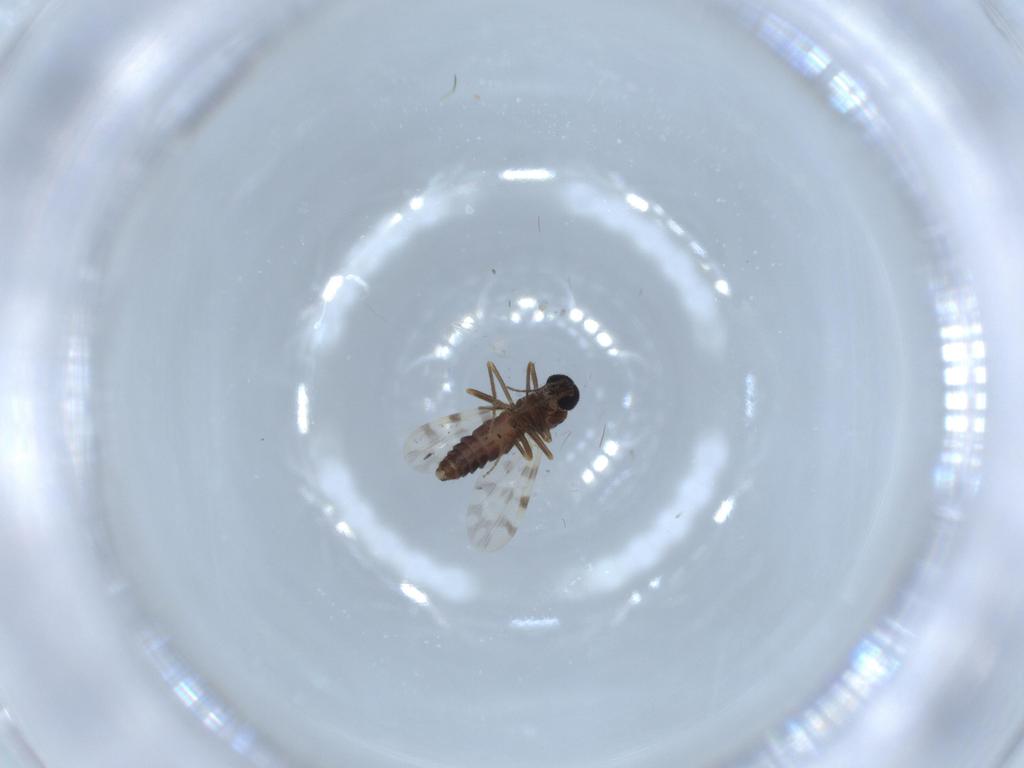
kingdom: Animalia
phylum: Arthropoda
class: Insecta
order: Diptera
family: Ceratopogonidae
